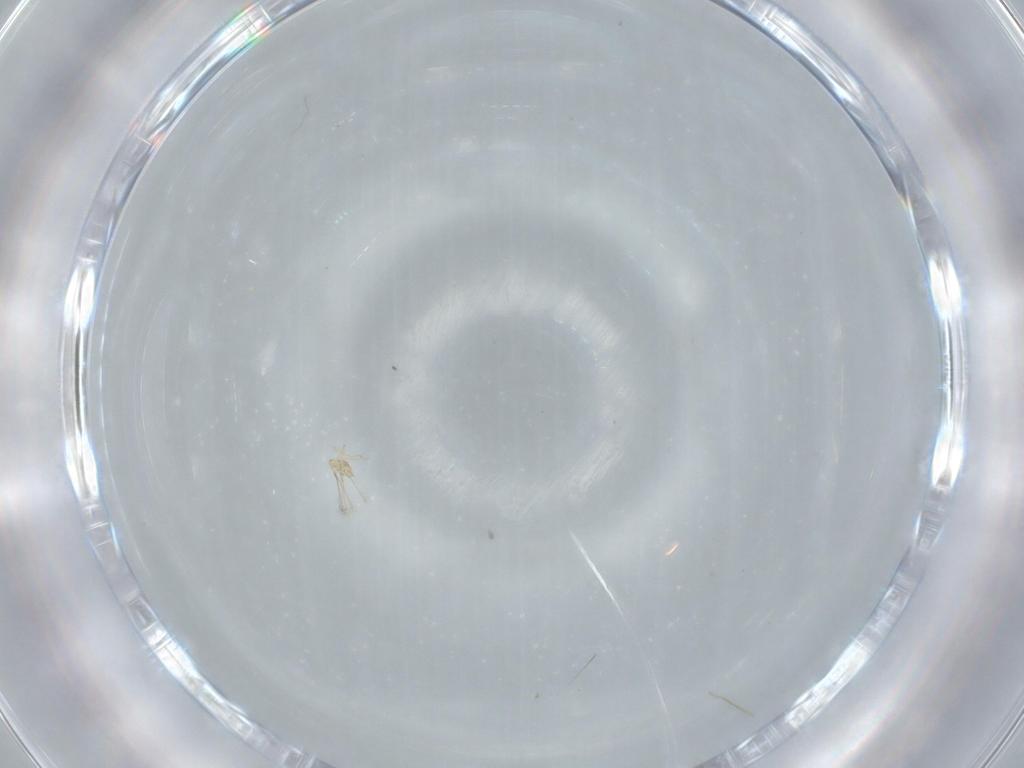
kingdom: Animalia
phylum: Arthropoda
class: Insecta
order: Hymenoptera
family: Mymaridae
